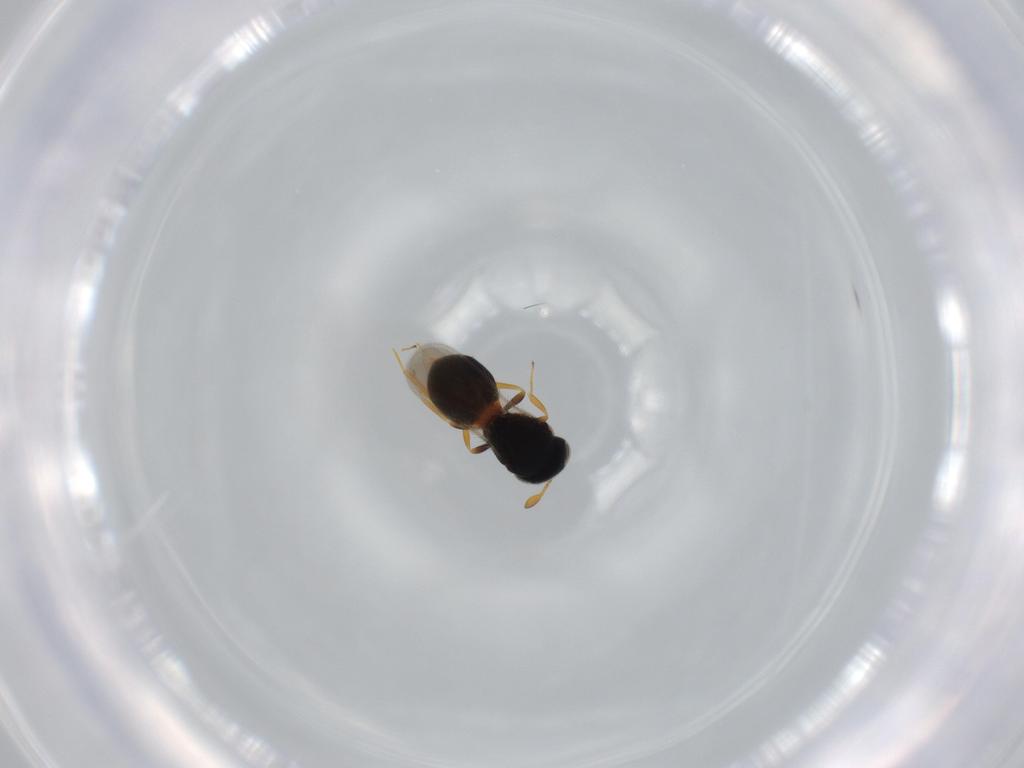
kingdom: Animalia
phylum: Arthropoda
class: Insecta
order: Hymenoptera
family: Scelionidae
